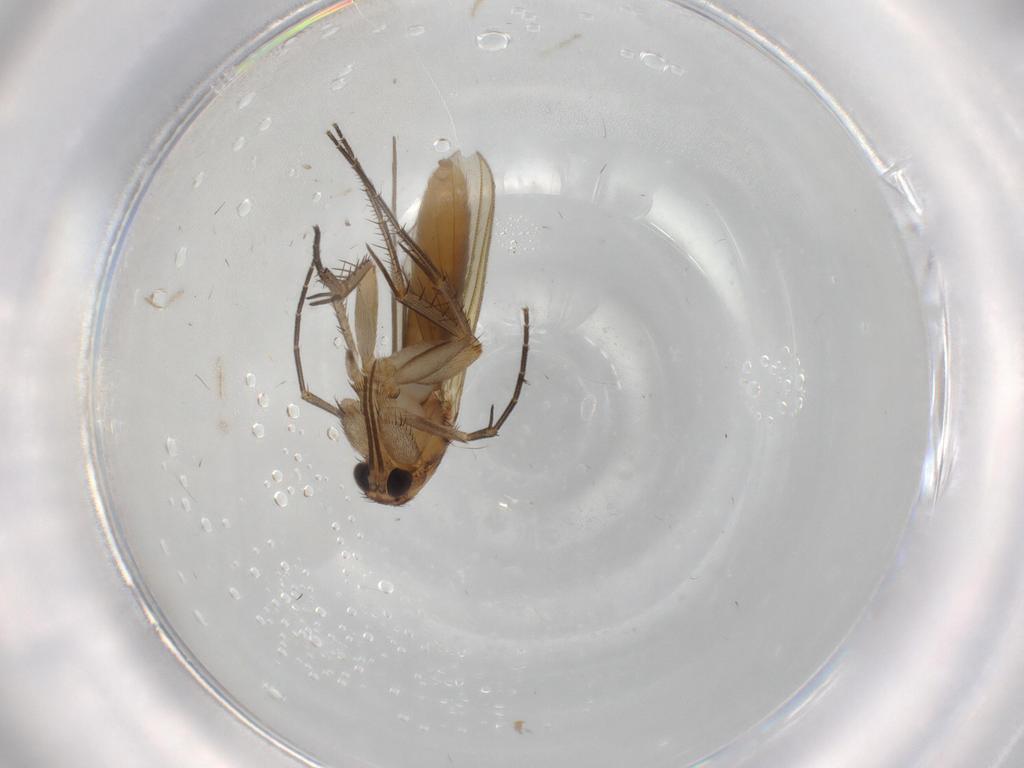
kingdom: Animalia
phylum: Arthropoda
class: Insecta
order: Diptera
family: Mycetophilidae
